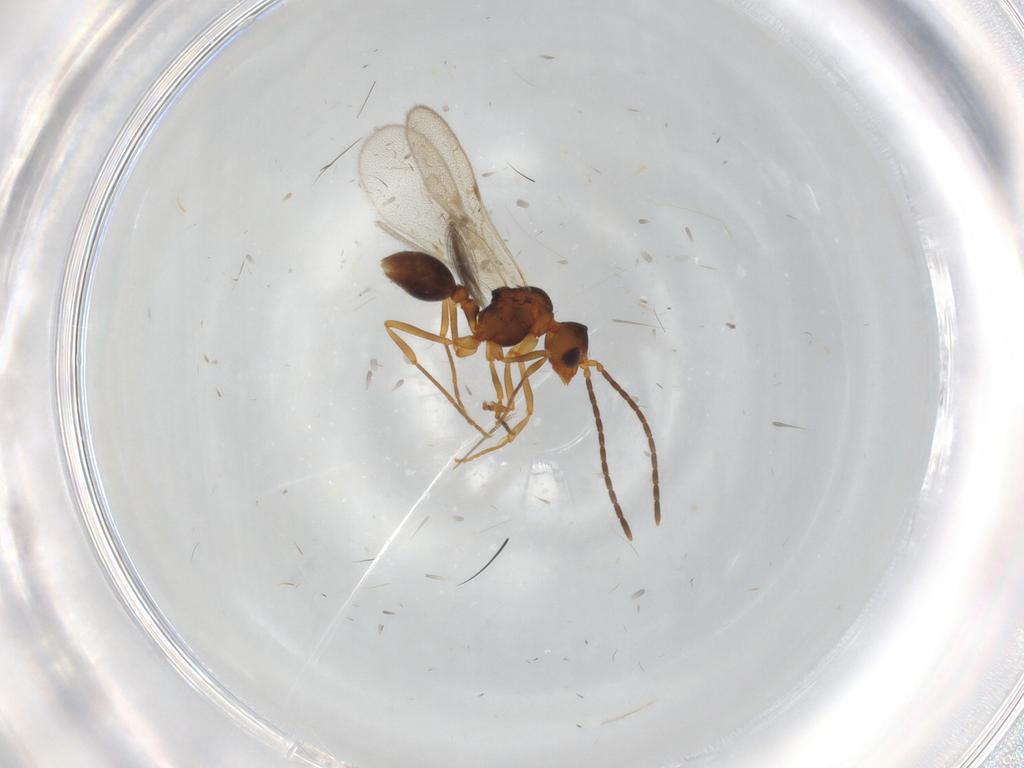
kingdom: Animalia
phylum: Arthropoda
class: Insecta
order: Hymenoptera
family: Formicidae
